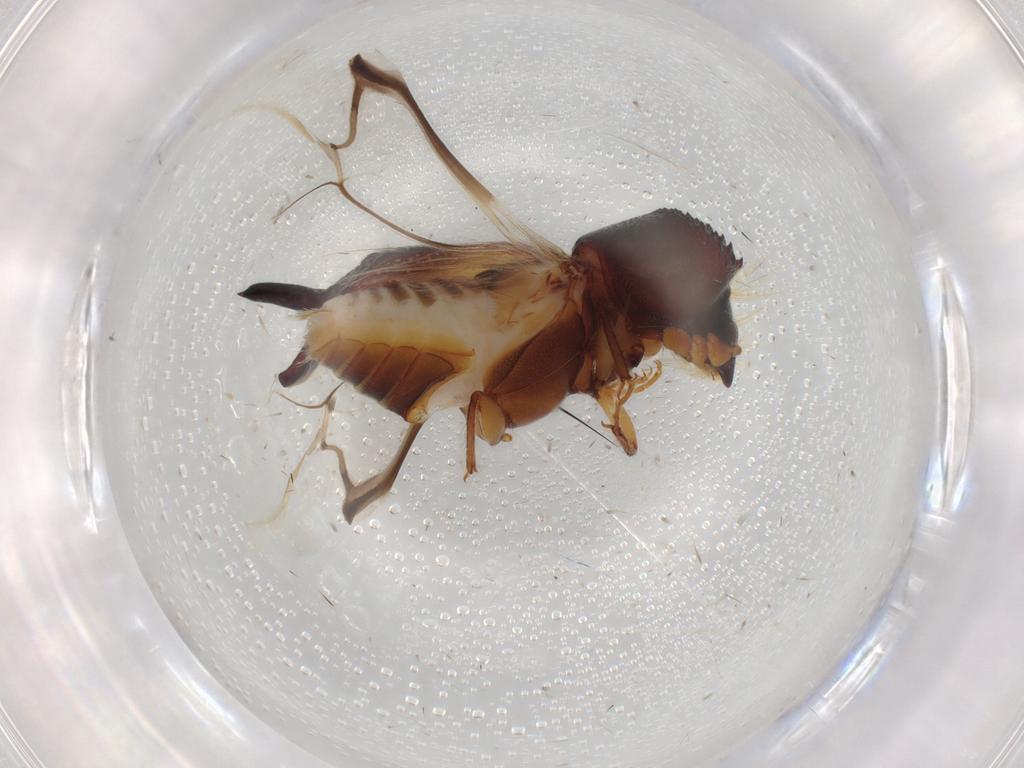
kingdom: Animalia
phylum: Arthropoda
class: Insecta
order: Coleoptera
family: Bostrichidae
